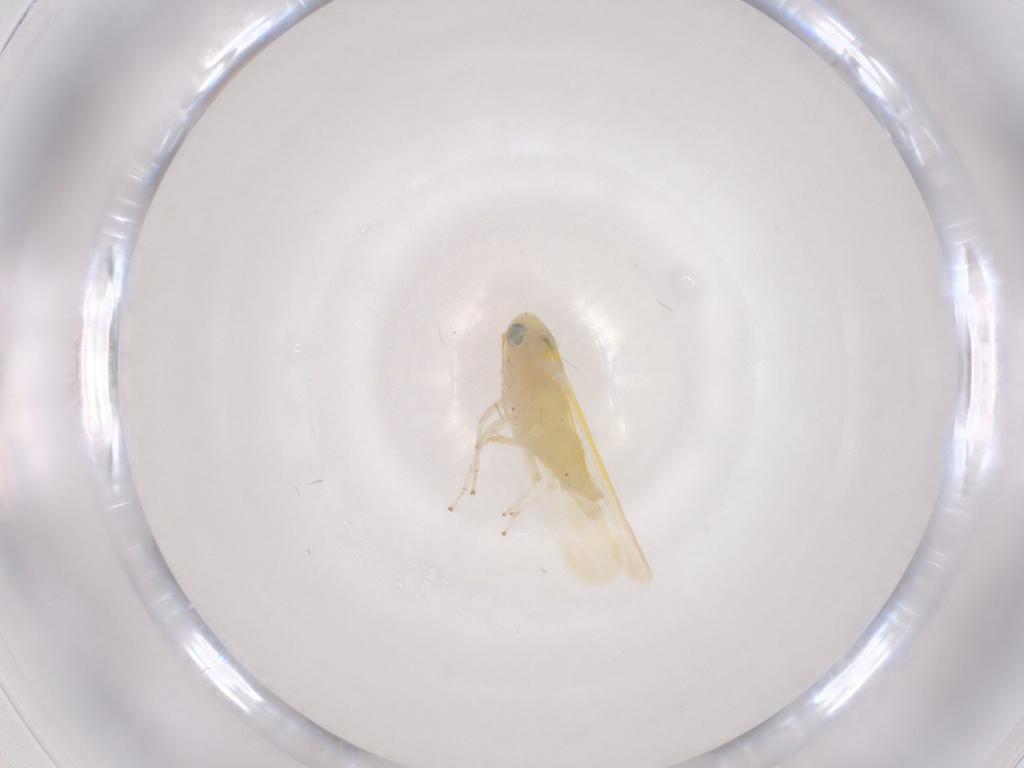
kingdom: Animalia
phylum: Arthropoda
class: Insecta
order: Hemiptera
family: Cicadellidae
